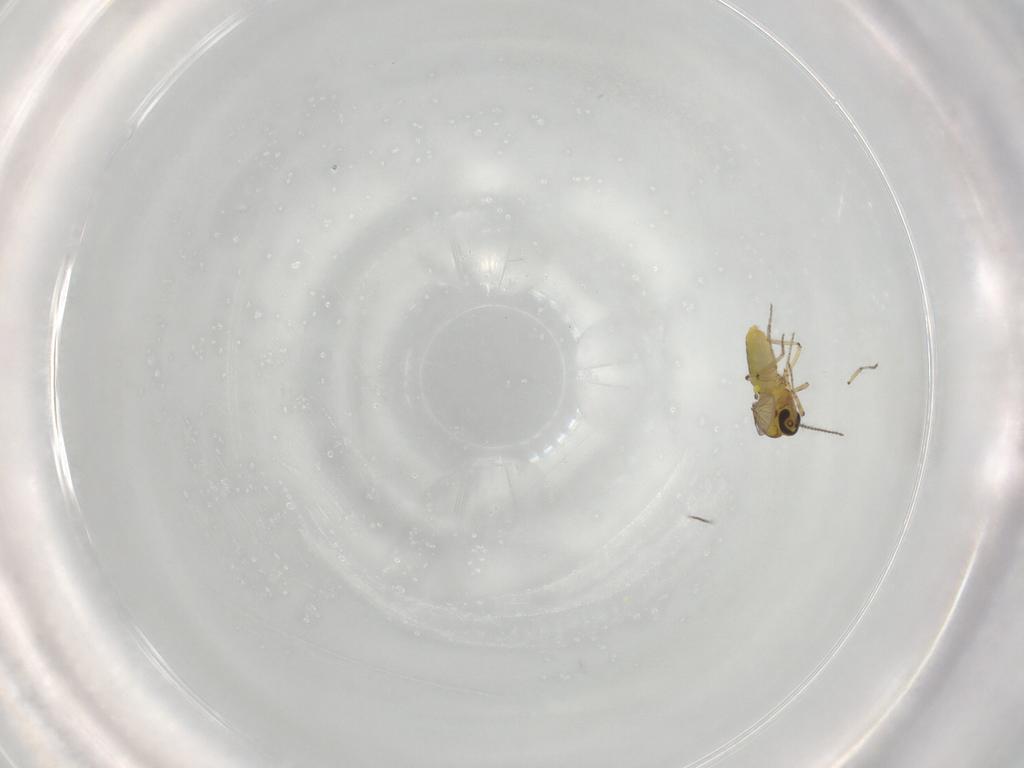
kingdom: Animalia
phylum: Arthropoda
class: Insecta
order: Diptera
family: Ceratopogonidae
